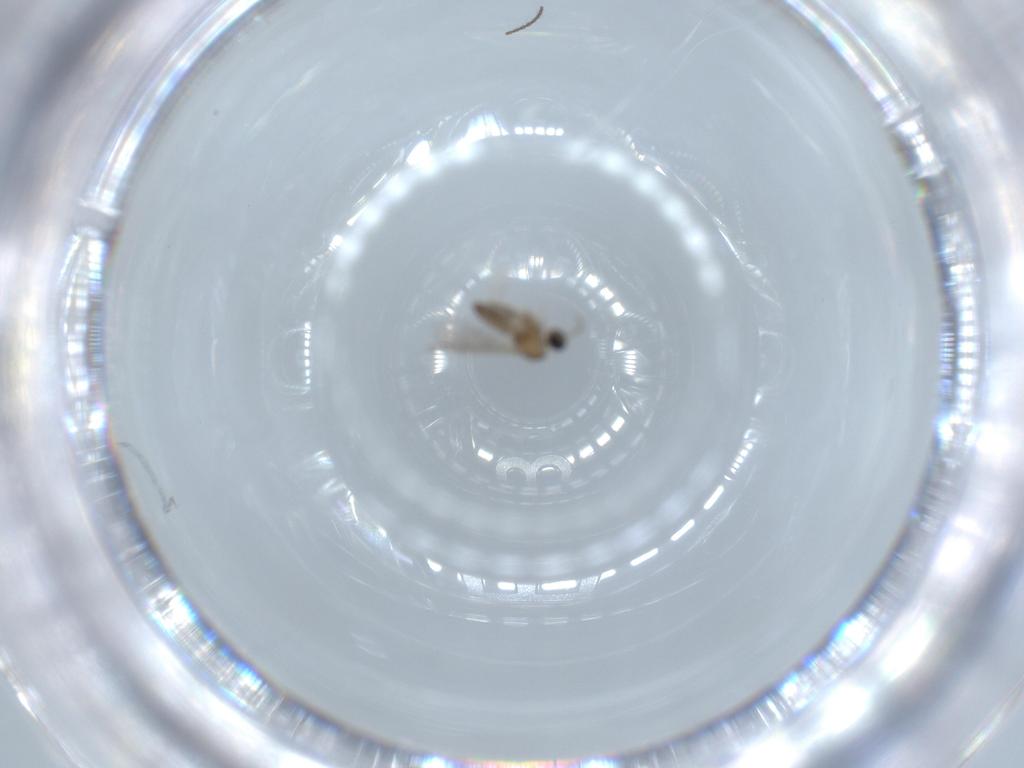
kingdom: Animalia
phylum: Arthropoda
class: Insecta
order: Diptera
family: Cecidomyiidae
